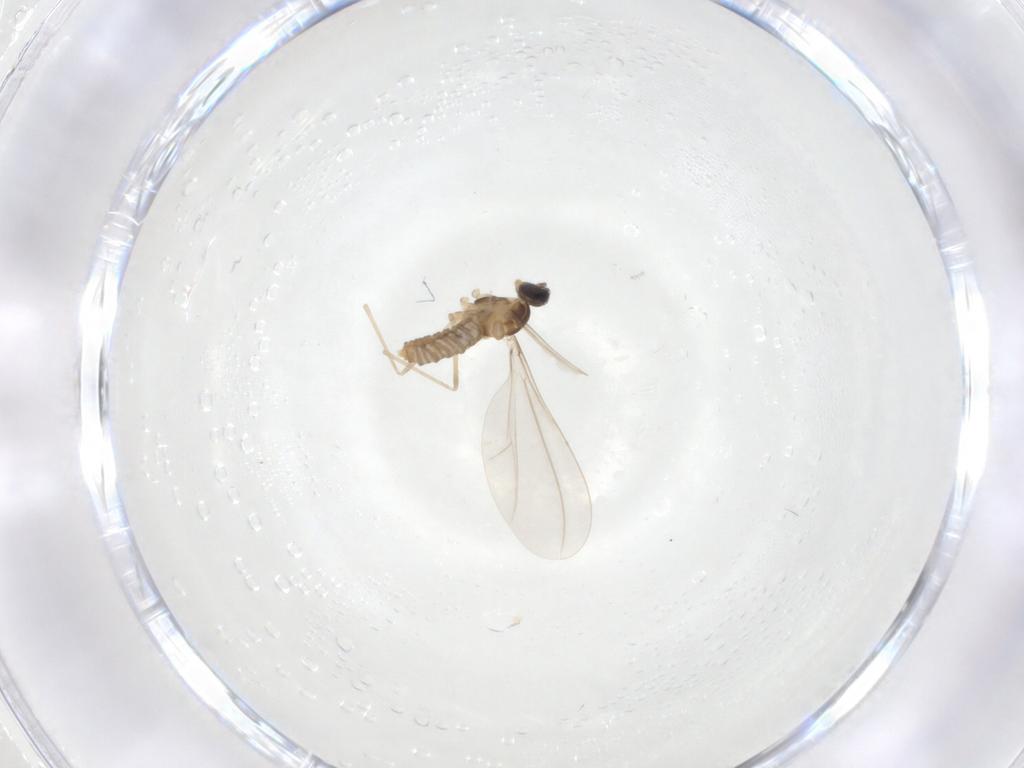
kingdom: Animalia
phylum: Arthropoda
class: Insecta
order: Diptera
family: Cecidomyiidae
